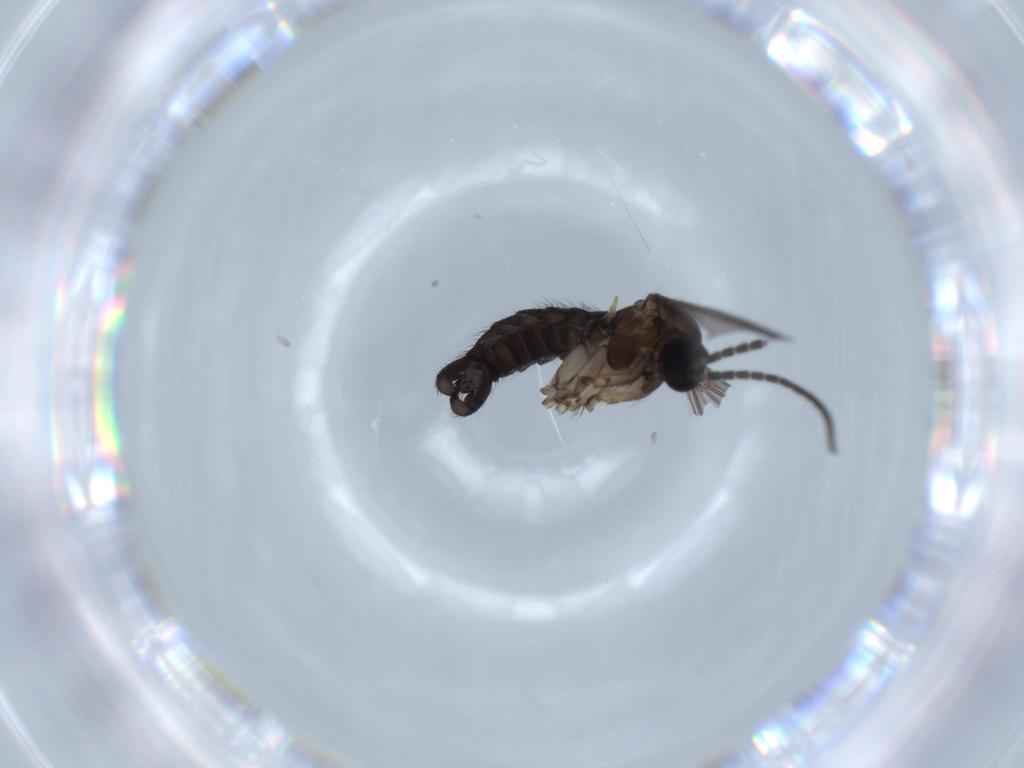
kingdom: Animalia
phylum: Arthropoda
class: Insecta
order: Diptera
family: Sciaridae
